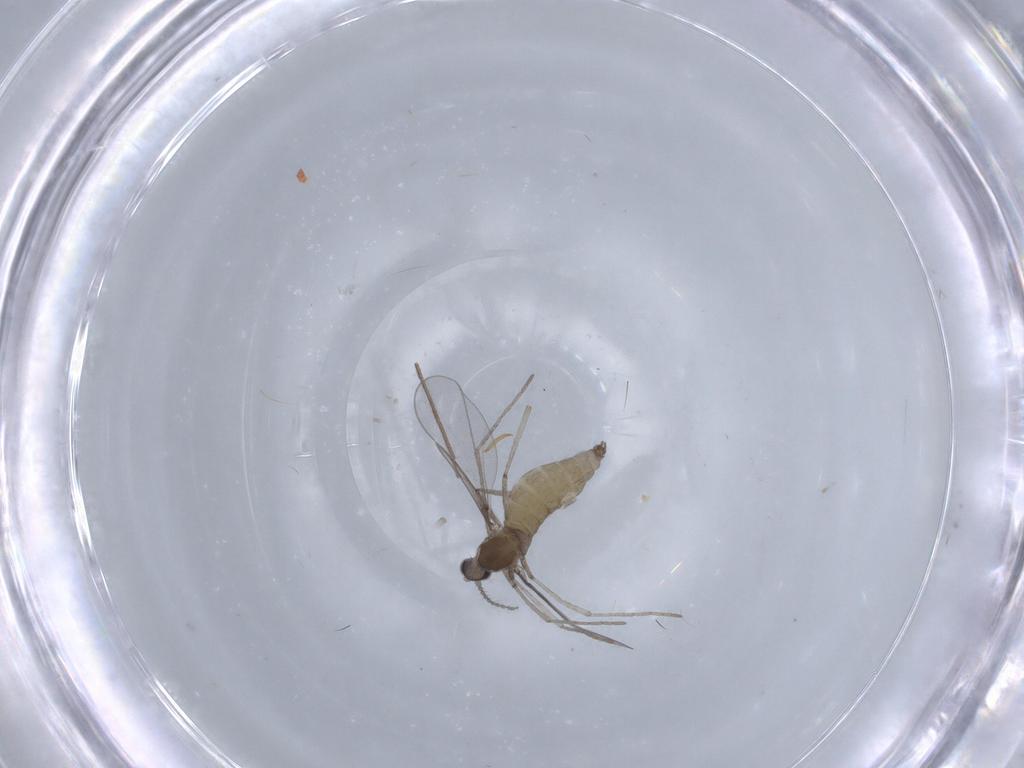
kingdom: Animalia
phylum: Arthropoda
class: Insecta
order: Diptera
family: Cecidomyiidae
